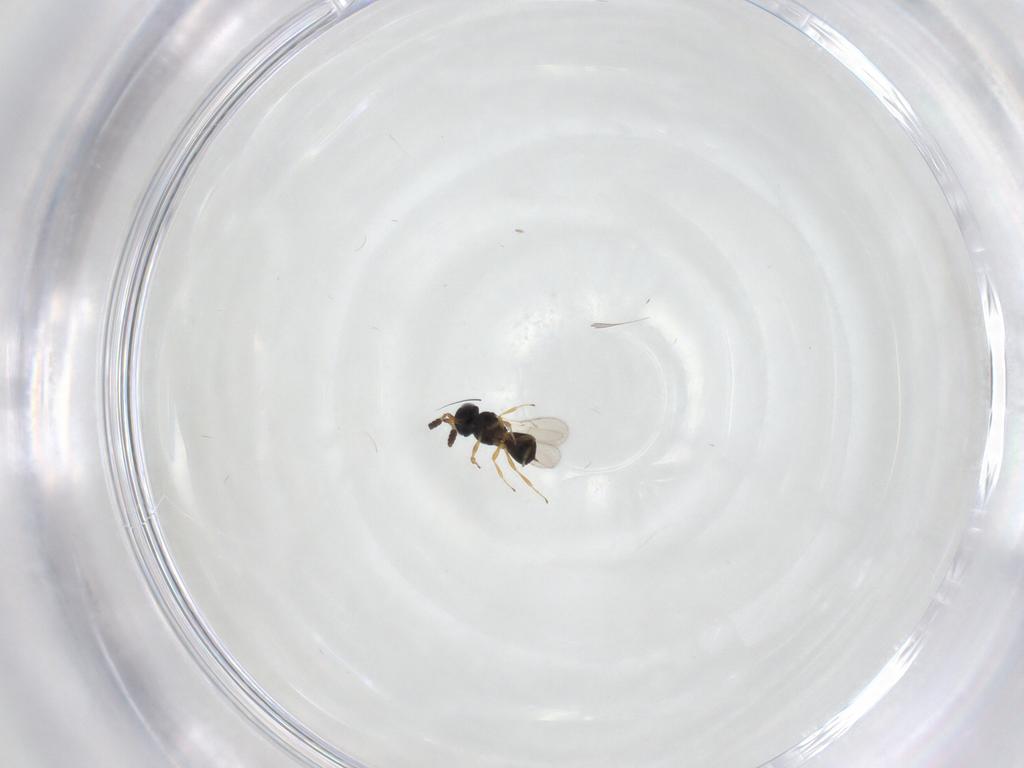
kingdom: Animalia
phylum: Arthropoda
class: Insecta
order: Hymenoptera
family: Scelionidae
